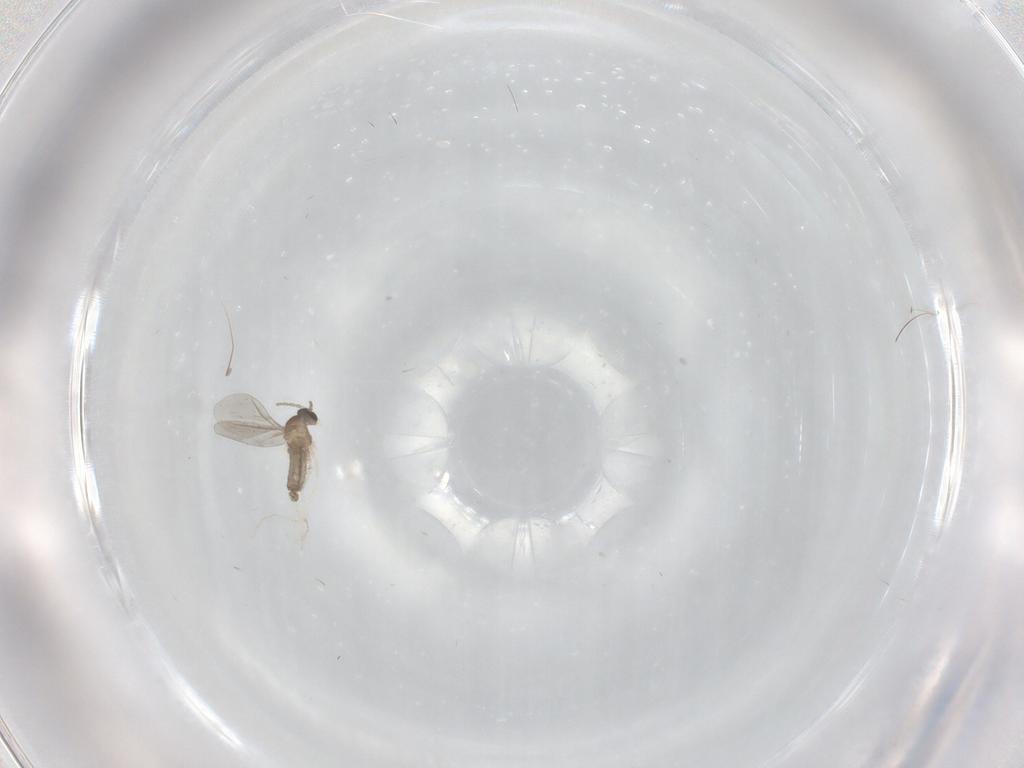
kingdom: Animalia
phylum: Arthropoda
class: Insecta
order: Diptera
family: Cecidomyiidae
